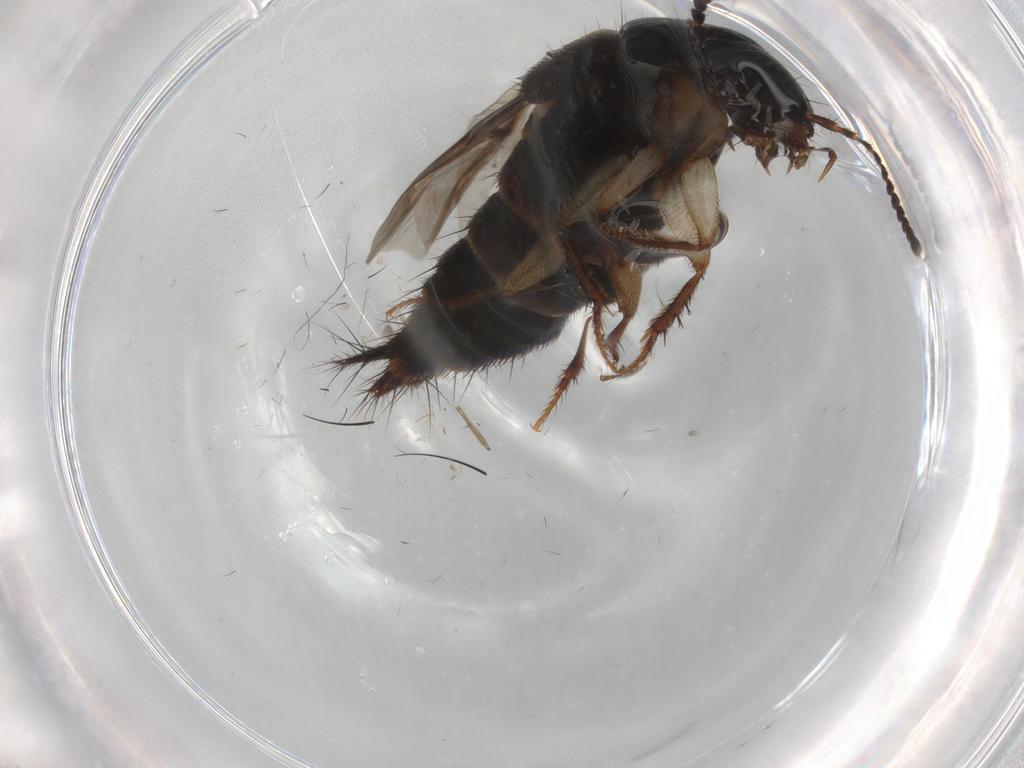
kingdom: Animalia
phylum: Arthropoda
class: Insecta
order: Coleoptera
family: Staphylinidae
